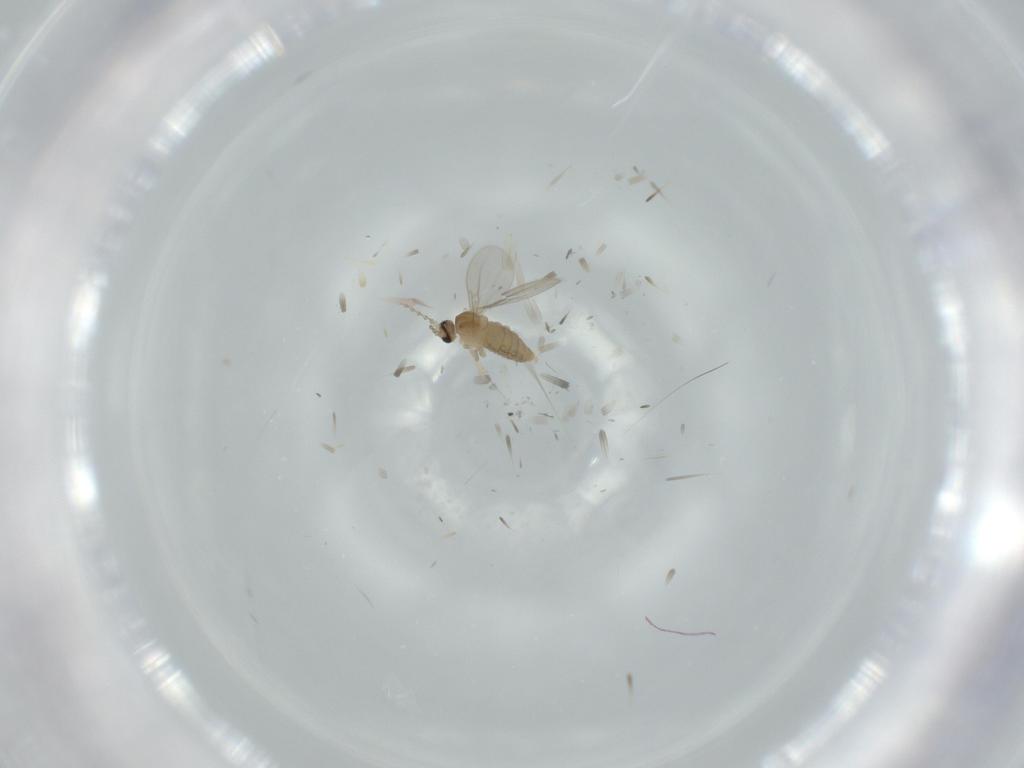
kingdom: Animalia
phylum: Arthropoda
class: Insecta
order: Diptera
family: Cecidomyiidae
